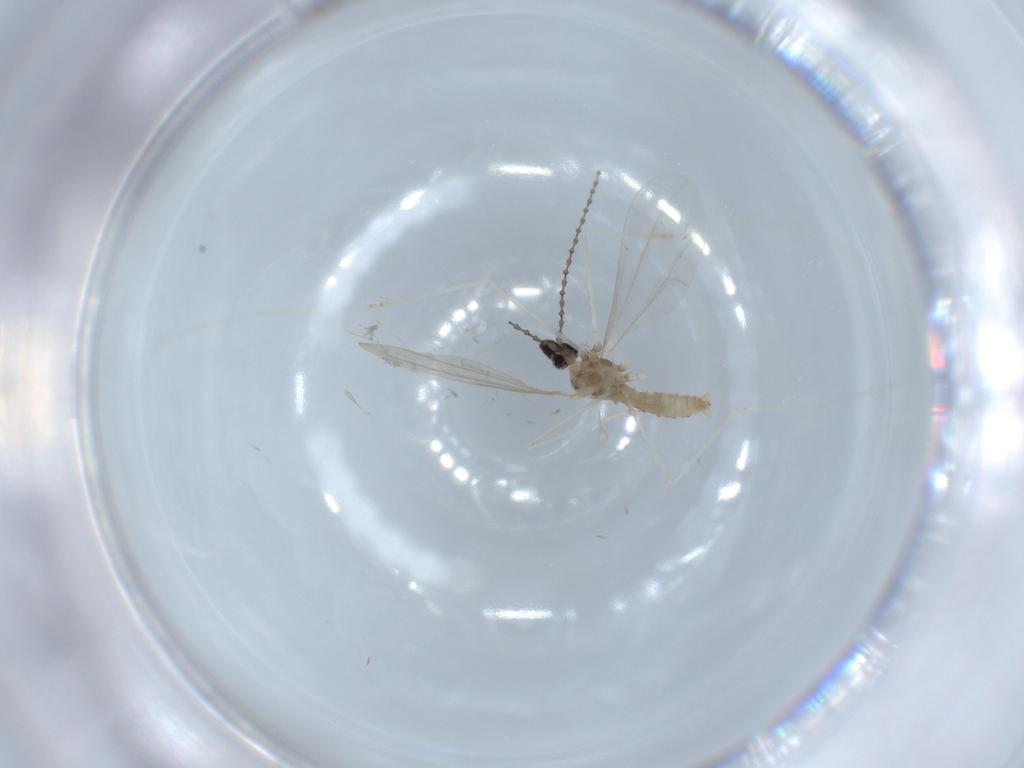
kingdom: Animalia
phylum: Arthropoda
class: Insecta
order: Diptera
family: Cecidomyiidae
